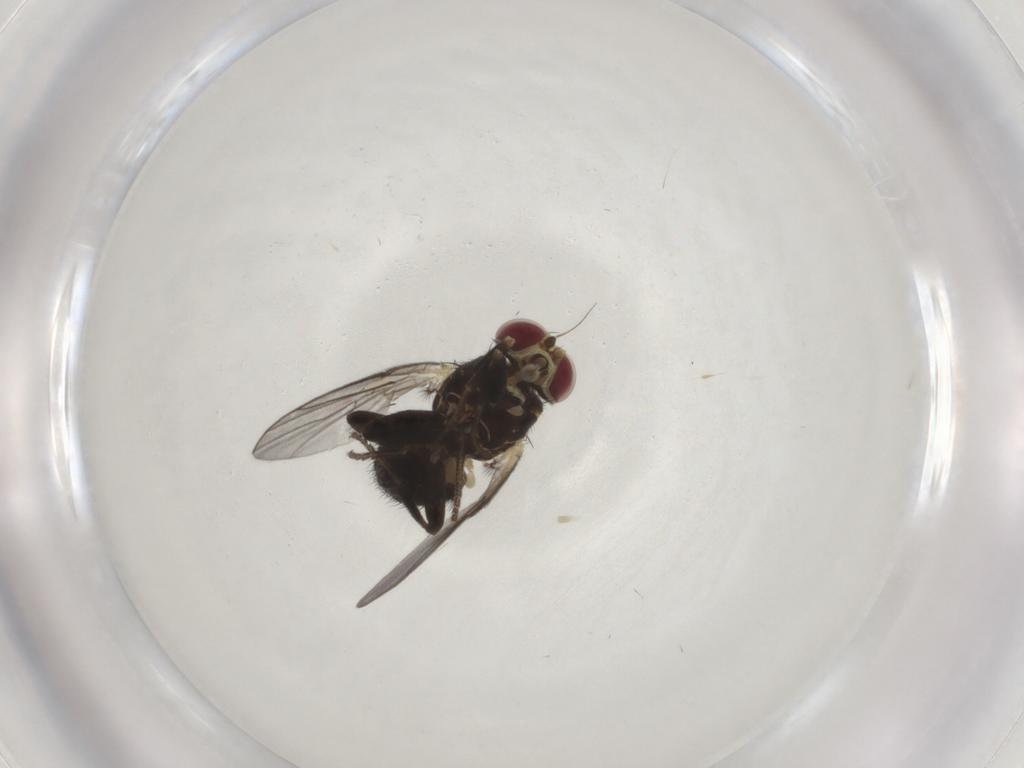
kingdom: Animalia
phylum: Arthropoda
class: Insecta
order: Diptera
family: Agromyzidae
